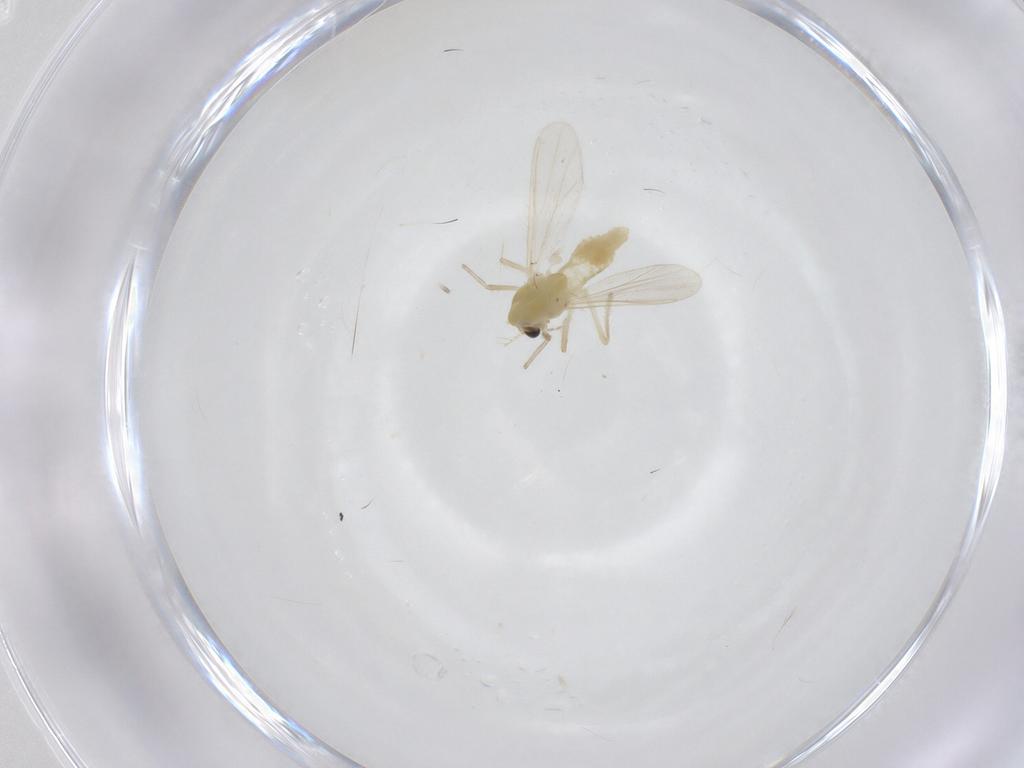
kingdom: Animalia
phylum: Arthropoda
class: Insecta
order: Diptera
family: Chironomidae
